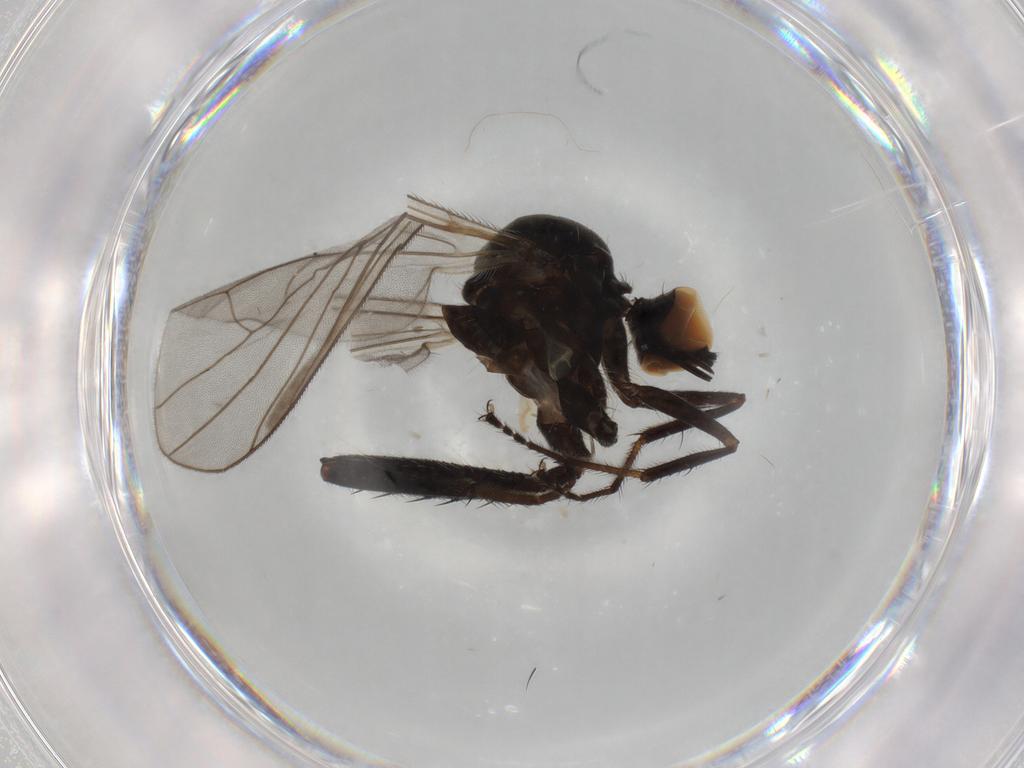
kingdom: Animalia
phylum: Arthropoda
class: Insecta
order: Diptera
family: Hybotidae
